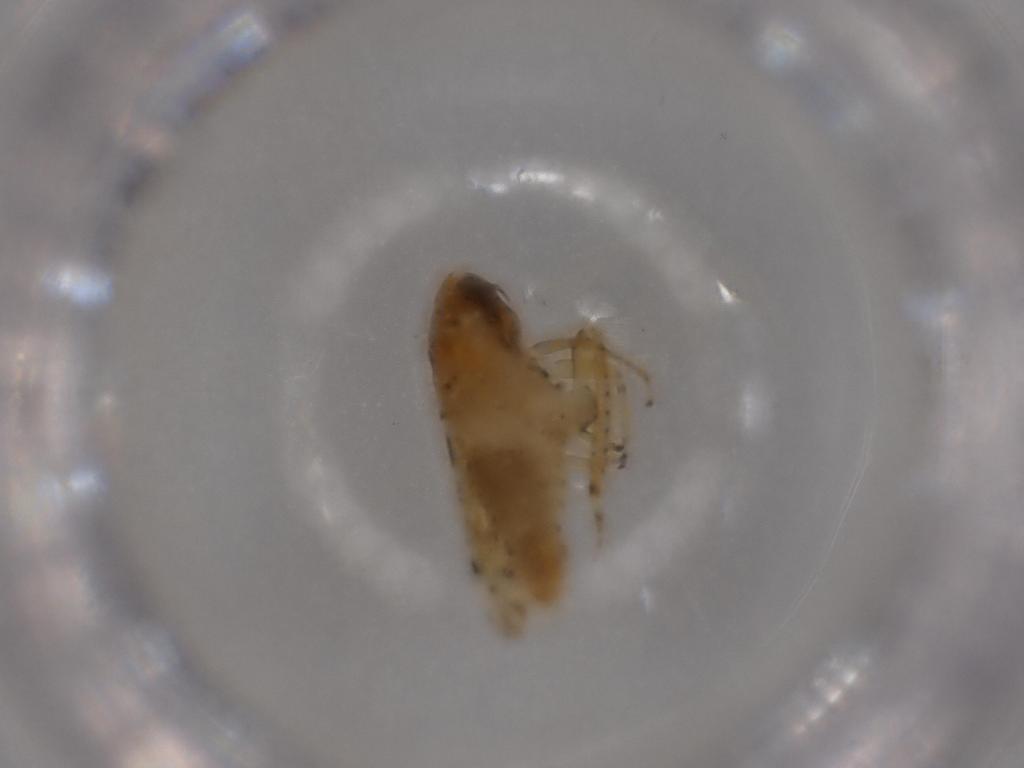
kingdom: Animalia
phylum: Arthropoda
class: Insecta
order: Hemiptera
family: Cicadellidae
